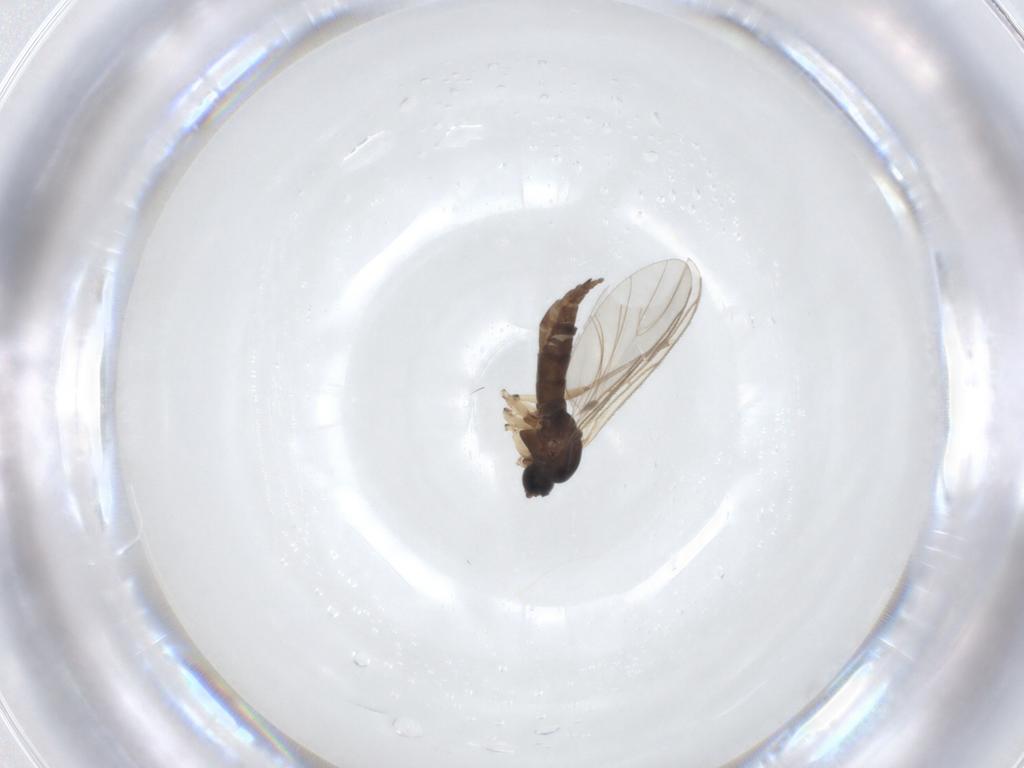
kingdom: Animalia
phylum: Arthropoda
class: Insecta
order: Diptera
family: Sciaridae
